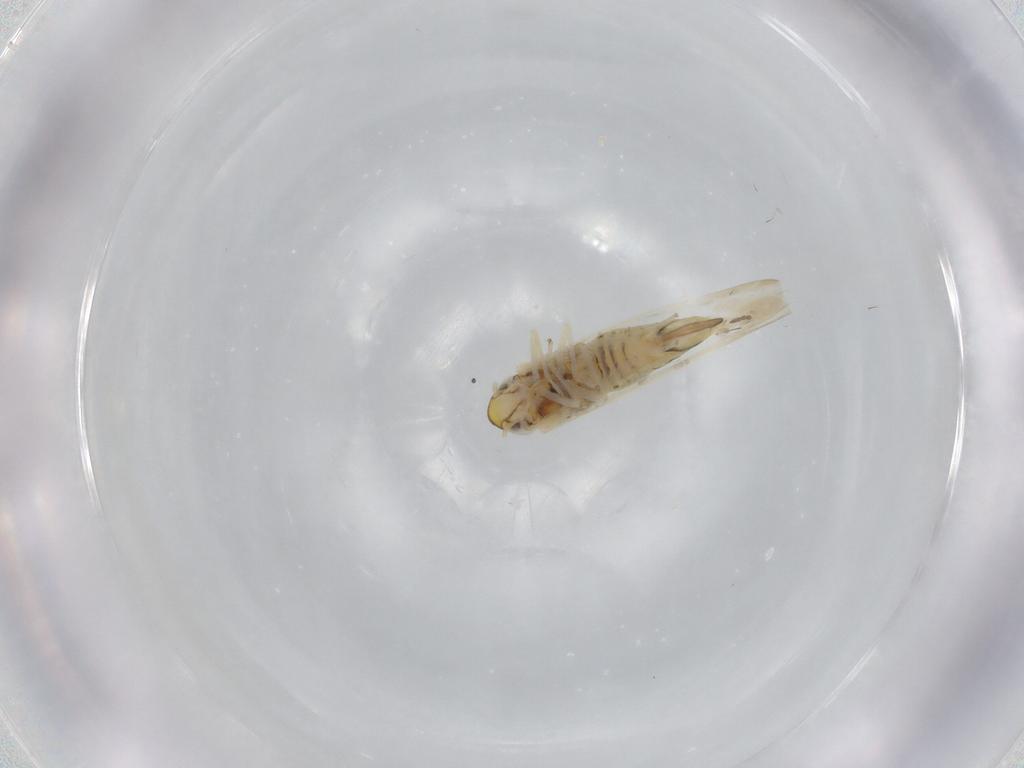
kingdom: Animalia
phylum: Arthropoda
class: Insecta
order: Hemiptera
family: Cicadellidae
